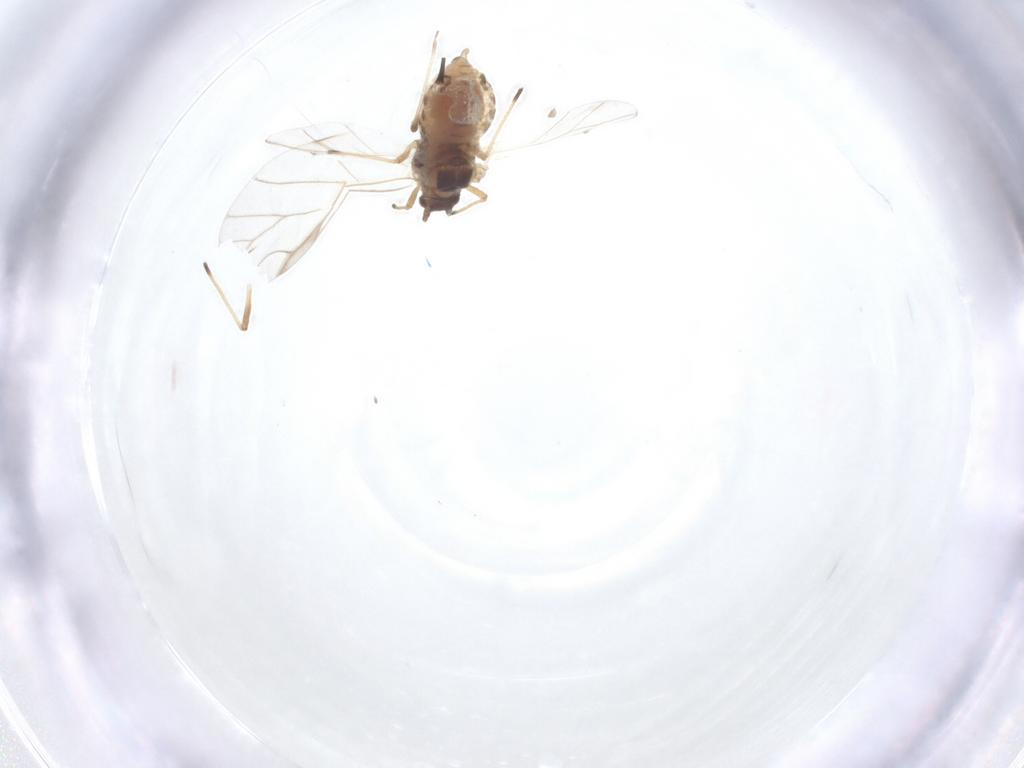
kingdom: Animalia
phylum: Arthropoda
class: Insecta
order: Hemiptera
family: Aphididae
